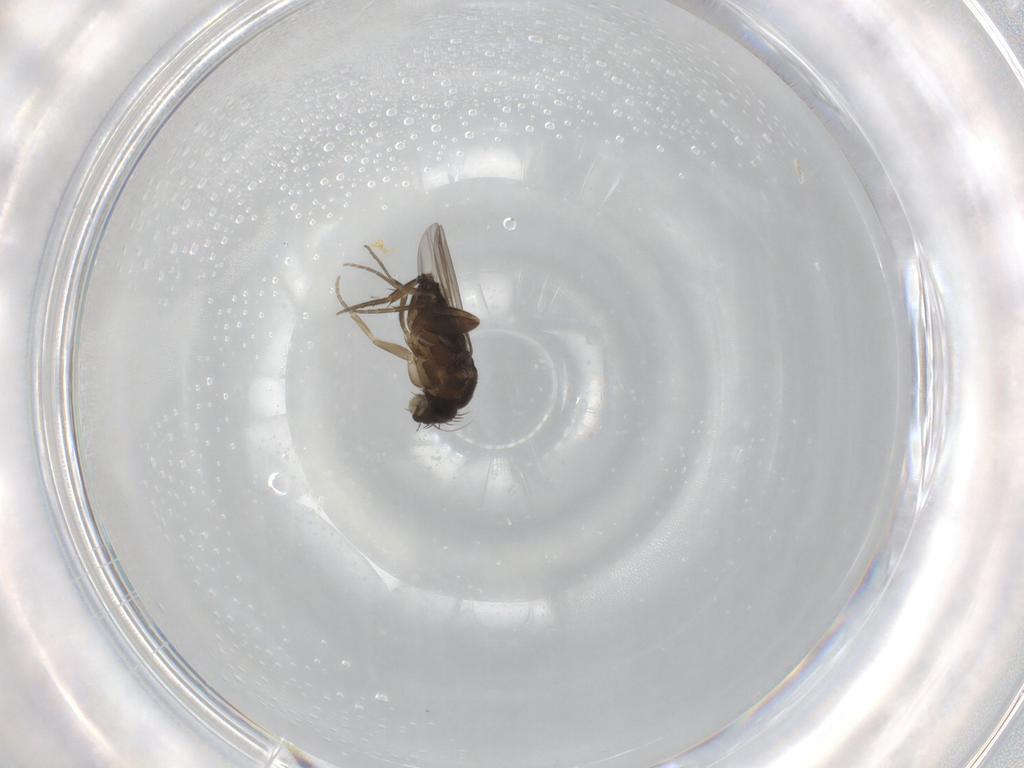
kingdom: Animalia
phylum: Arthropoda
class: Insecta
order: Diptera
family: Phoridae
